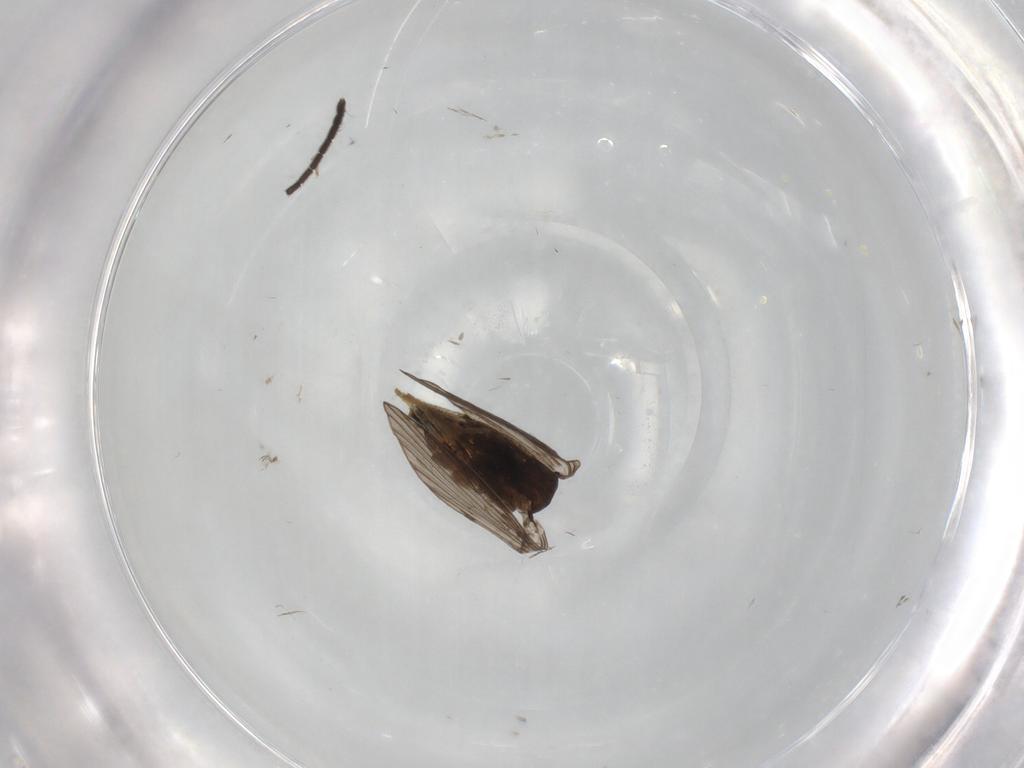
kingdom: Animalia
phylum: Arthropoda
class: Insecta
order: Diptera
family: Sciaridae
